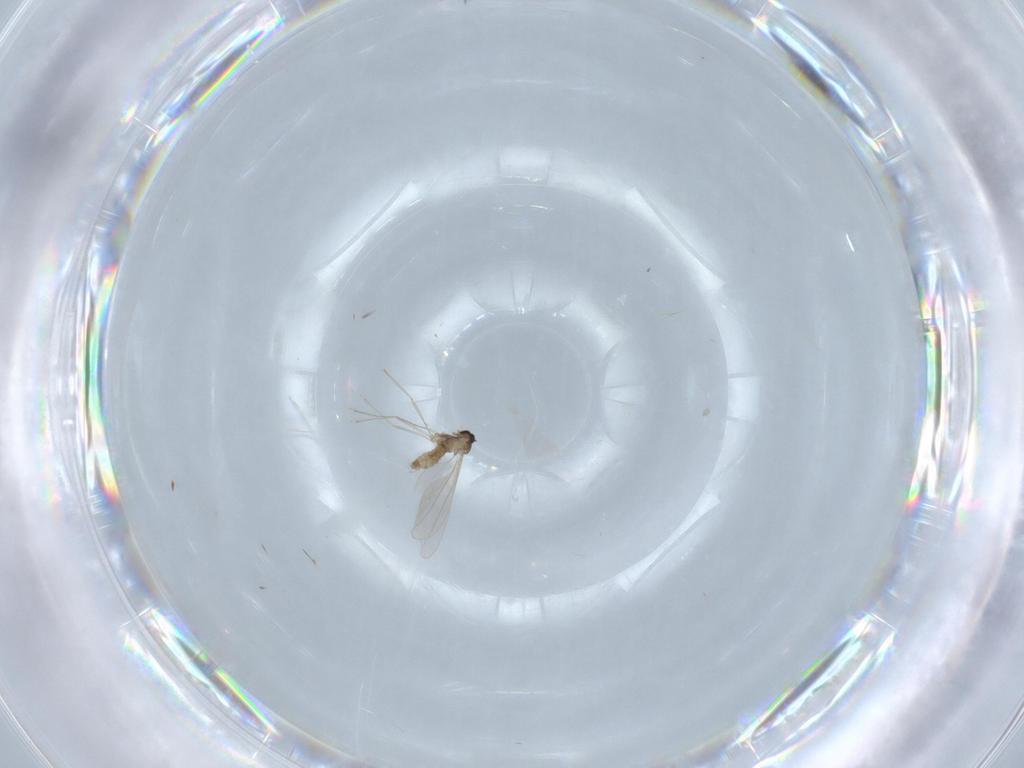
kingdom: Animalia
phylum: Arthropoda
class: Insecta
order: Diptera
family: Cecidomyiidae
